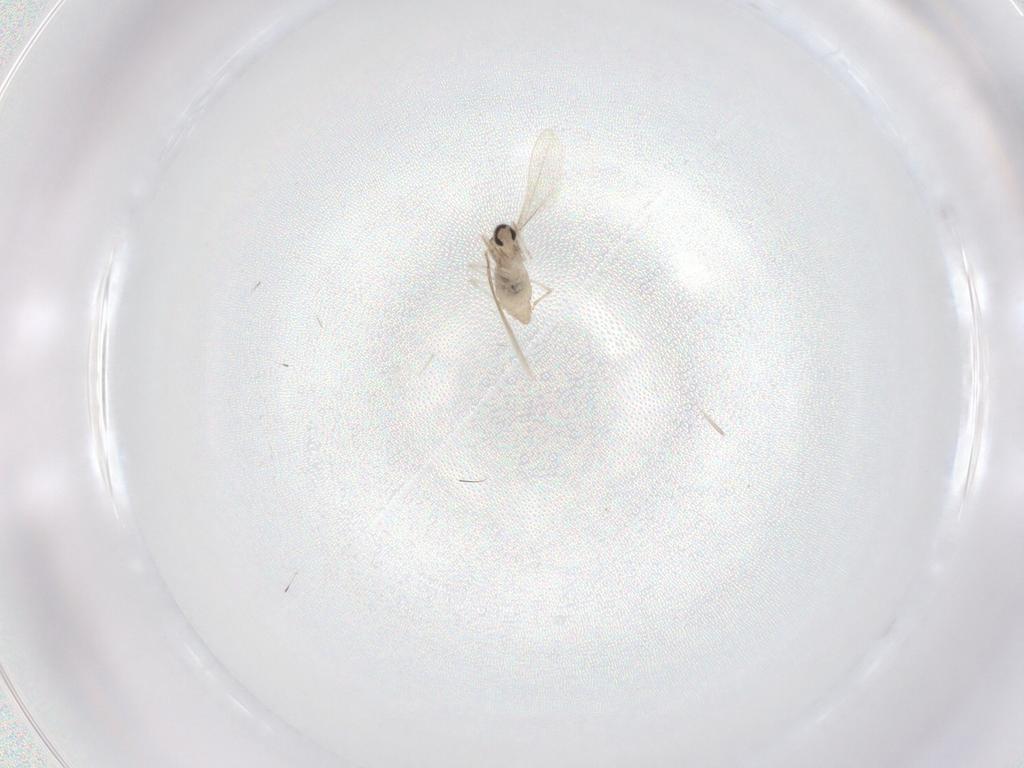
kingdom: Animalia
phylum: Arthropoda
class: Insecta
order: Diptera
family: Cecidomyiidae
